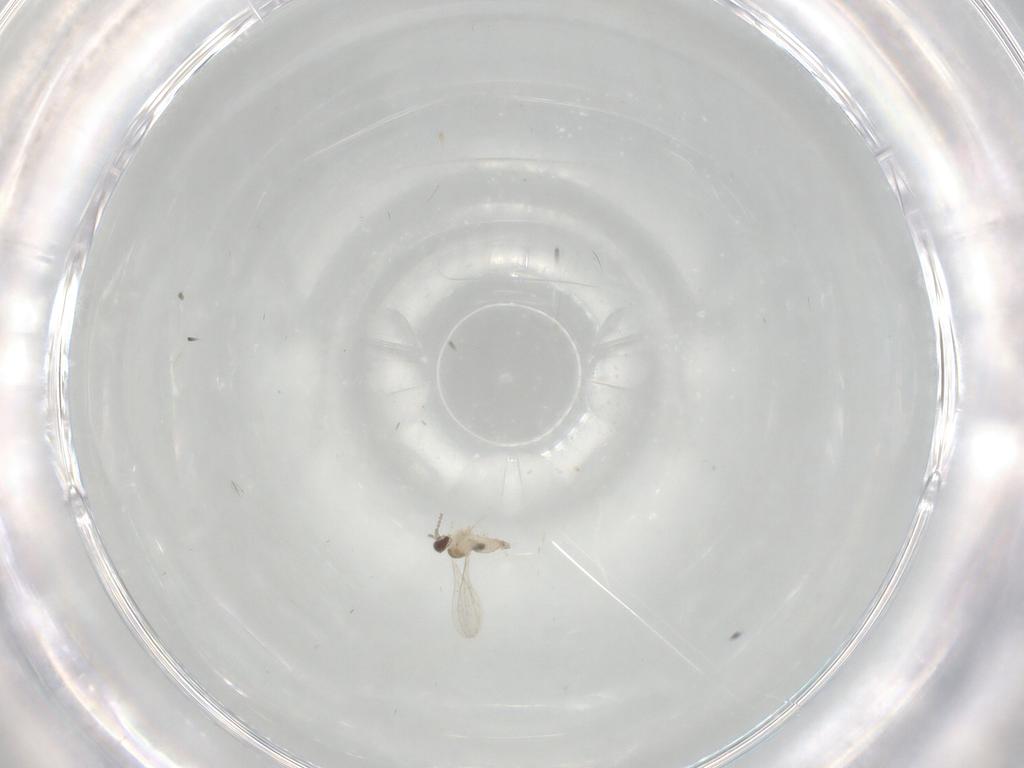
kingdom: Animalia
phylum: Arthropoda
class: Insecta
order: Diptera
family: Cecidomyiidae
